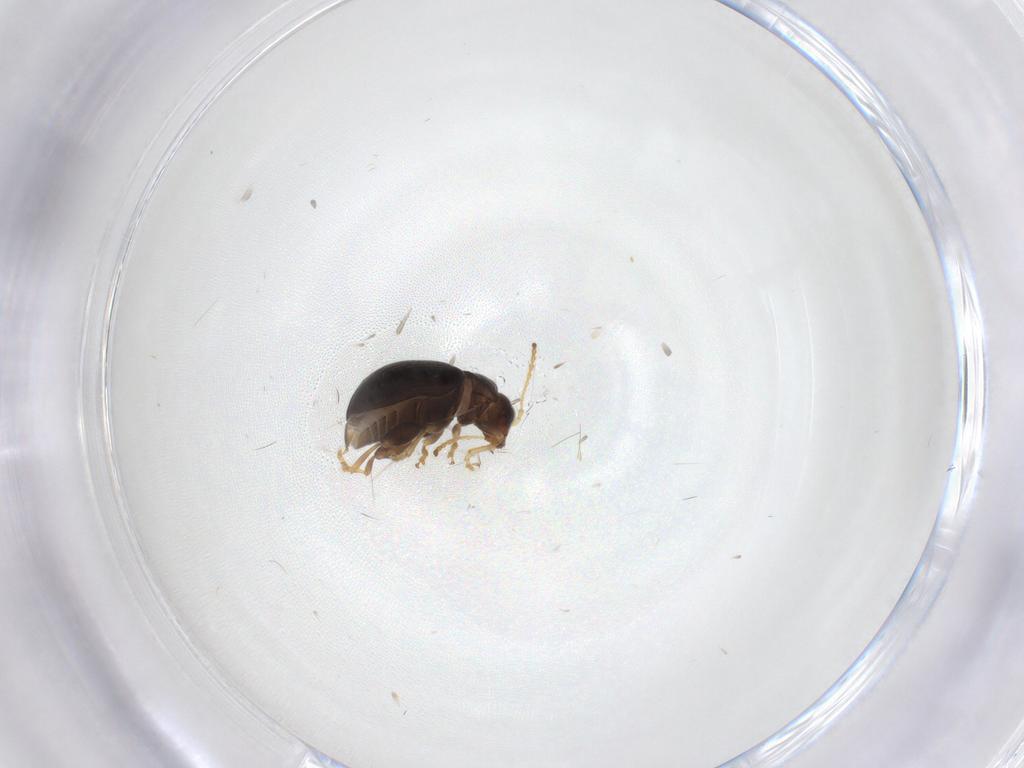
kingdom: Animalia
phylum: Arthropoda
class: Insecta
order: Coleoptera
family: Chrysomelidae
